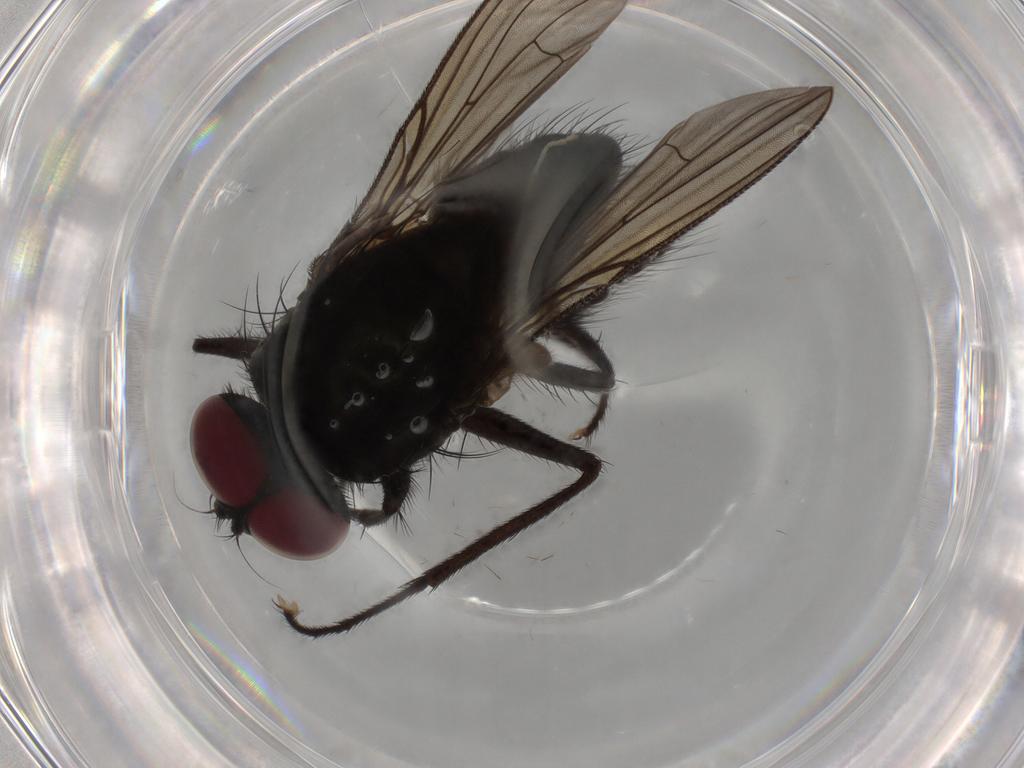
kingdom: Animalia
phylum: Arthropoda
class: Insecta
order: Diptera
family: Muscidae
